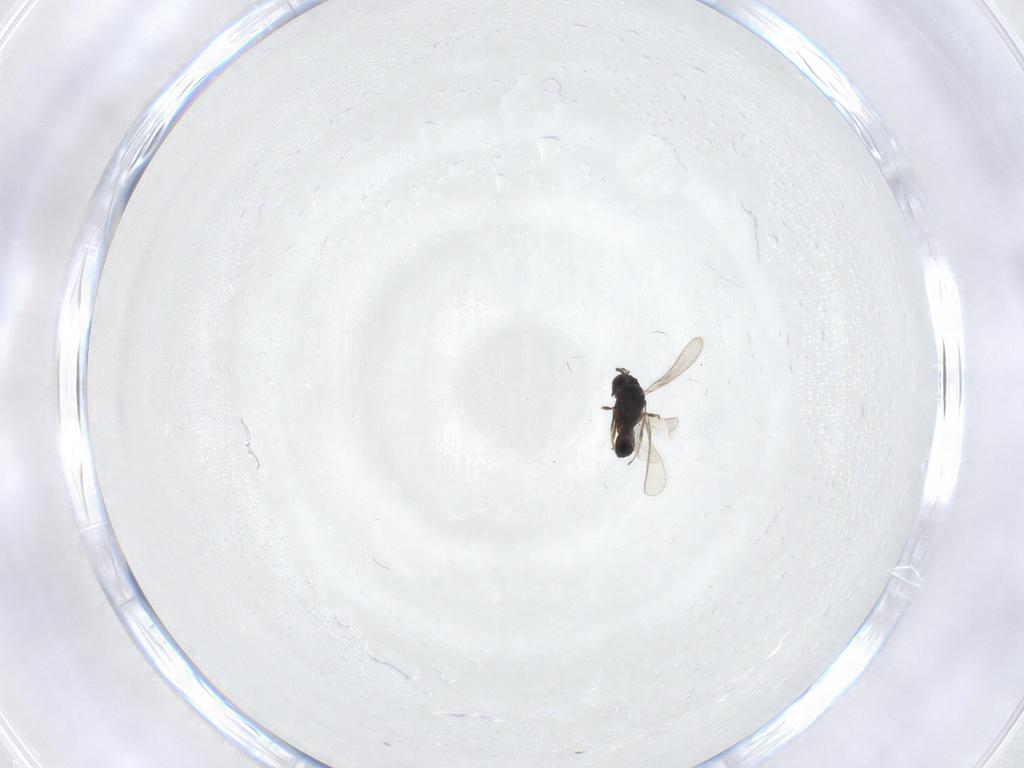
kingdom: Animalia
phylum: Arthropoda
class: Insecta
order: Hymenoptera
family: Scelionidae
